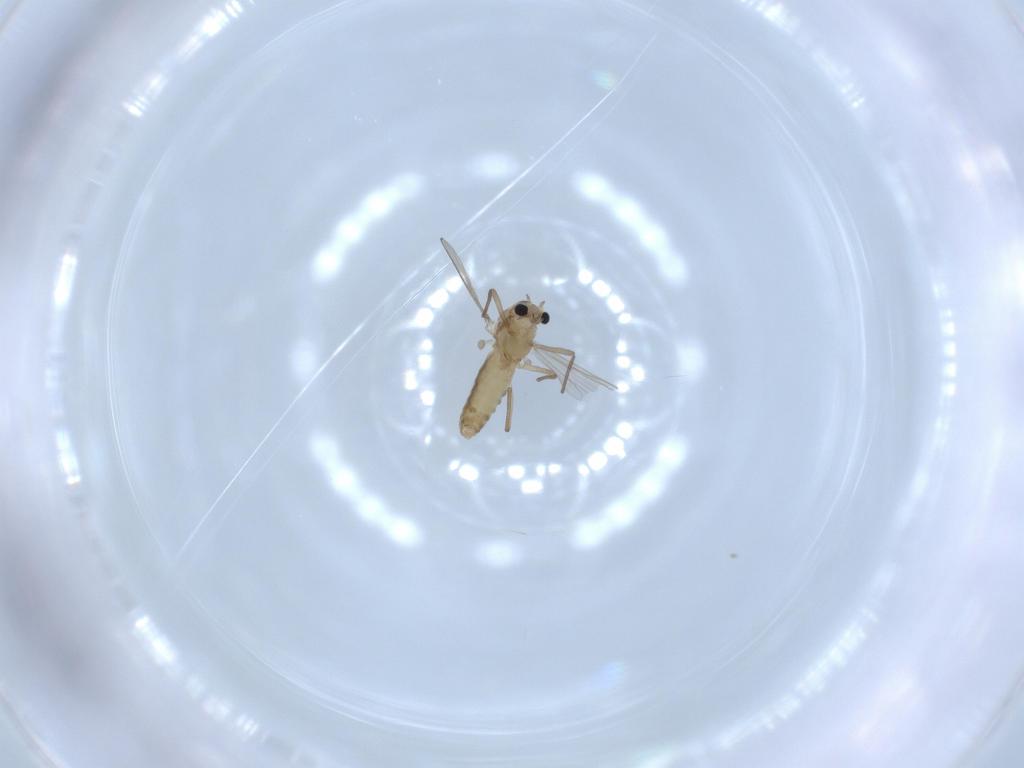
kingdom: Animalia
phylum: Arthropoda
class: Insecta
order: Diptera
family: Chironomidae
